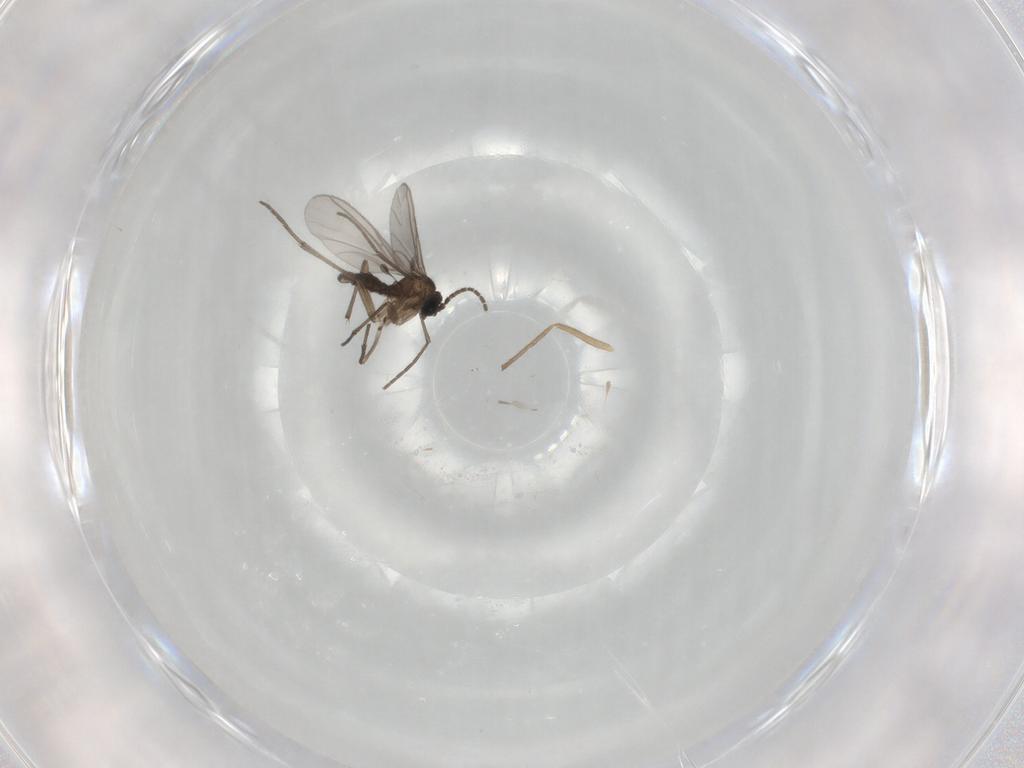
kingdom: Animalia
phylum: Arthropoda
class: Insecta
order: Diptera
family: Sciaridae
